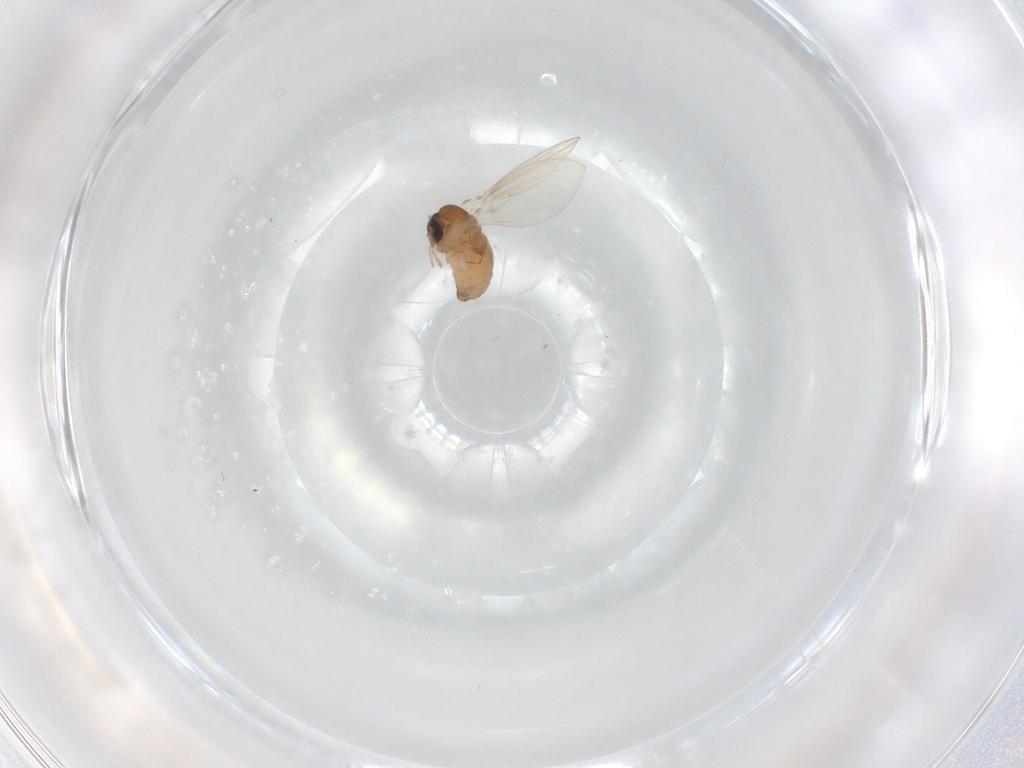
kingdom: Animalia
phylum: Arthropoda
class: Insecta
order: Diptera
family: Psychodidae
